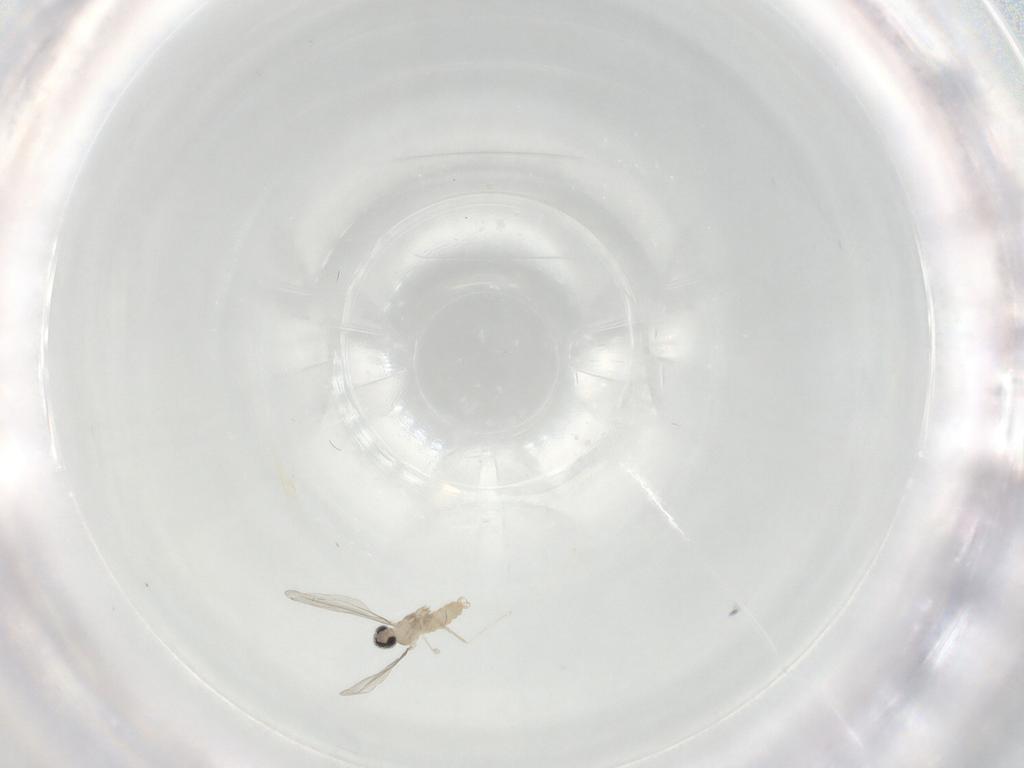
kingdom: Animalia
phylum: Arthropoda
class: Insecta
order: Diptera
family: Cecidomyiidae
